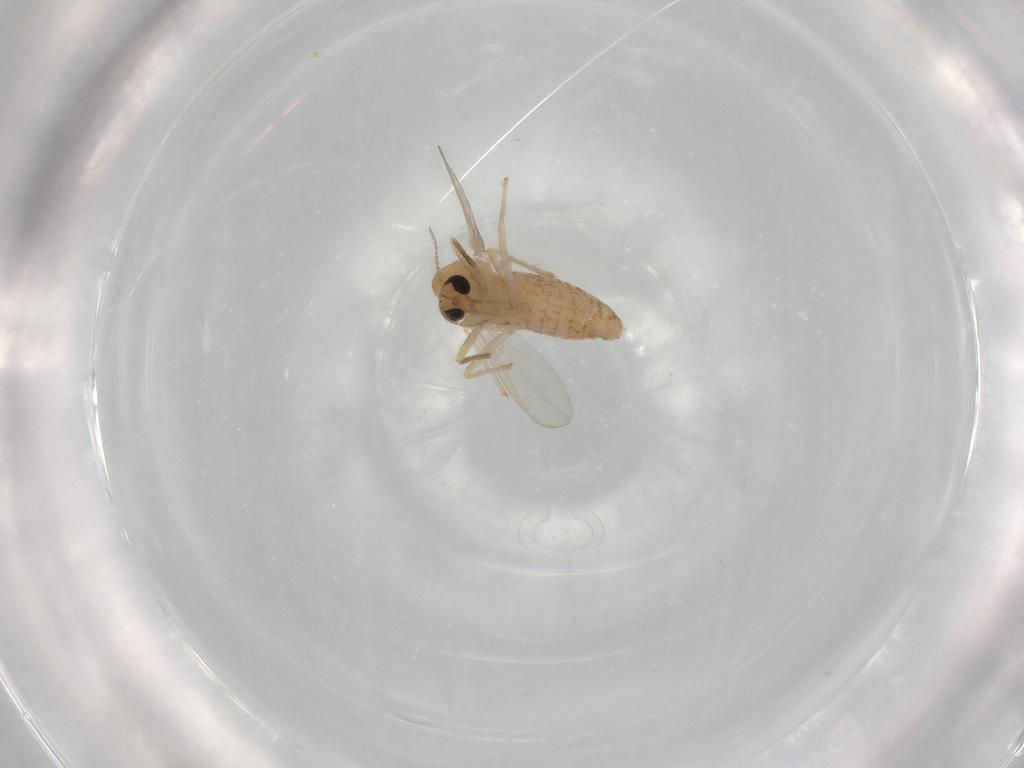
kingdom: Animalia
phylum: Arthropoda
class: Insecta
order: Diptera
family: Chironomidae
